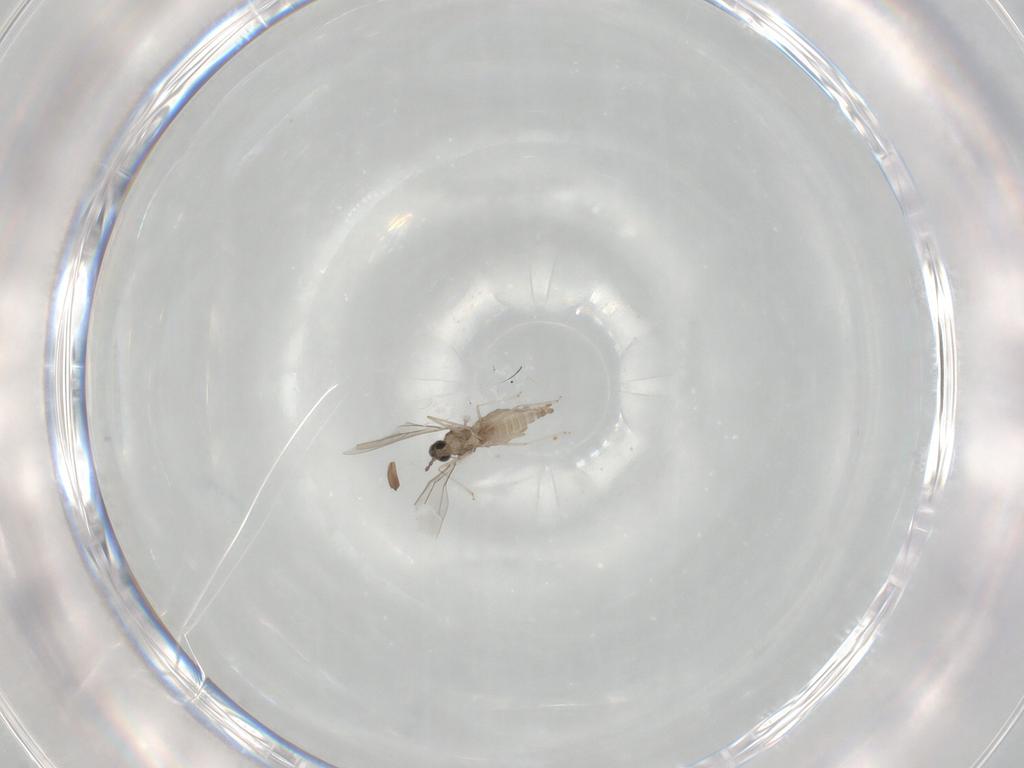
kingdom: Animalia
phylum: Arthropoda
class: Insecta
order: Diptera
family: Cecidomyiidae
